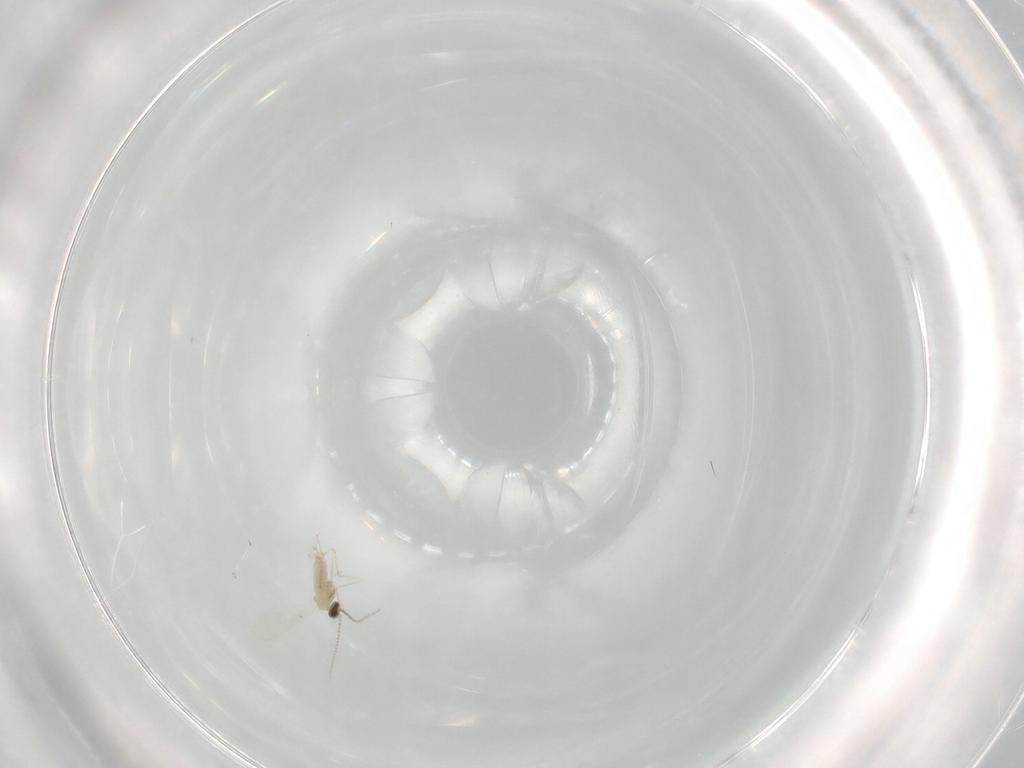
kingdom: Animalia
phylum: Arthropoda
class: Insecta
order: Diptera
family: Cecidomyiidae
